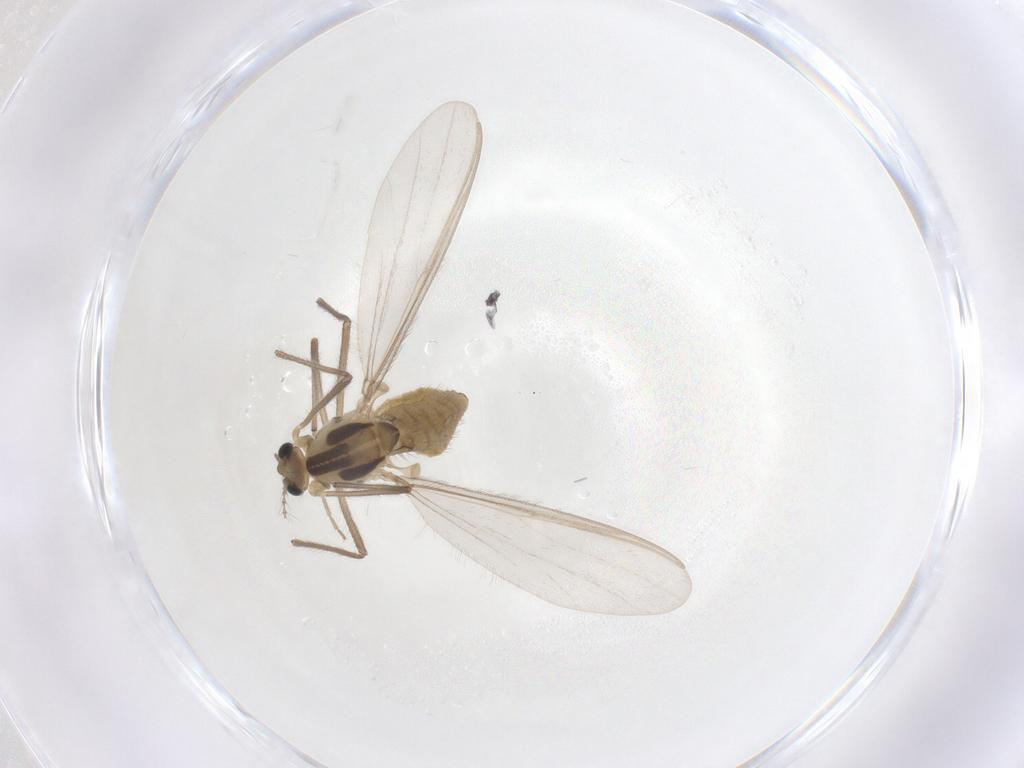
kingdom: Animalia
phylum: Arthropoda
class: Insecta
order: Diptera
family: Chironomidae
